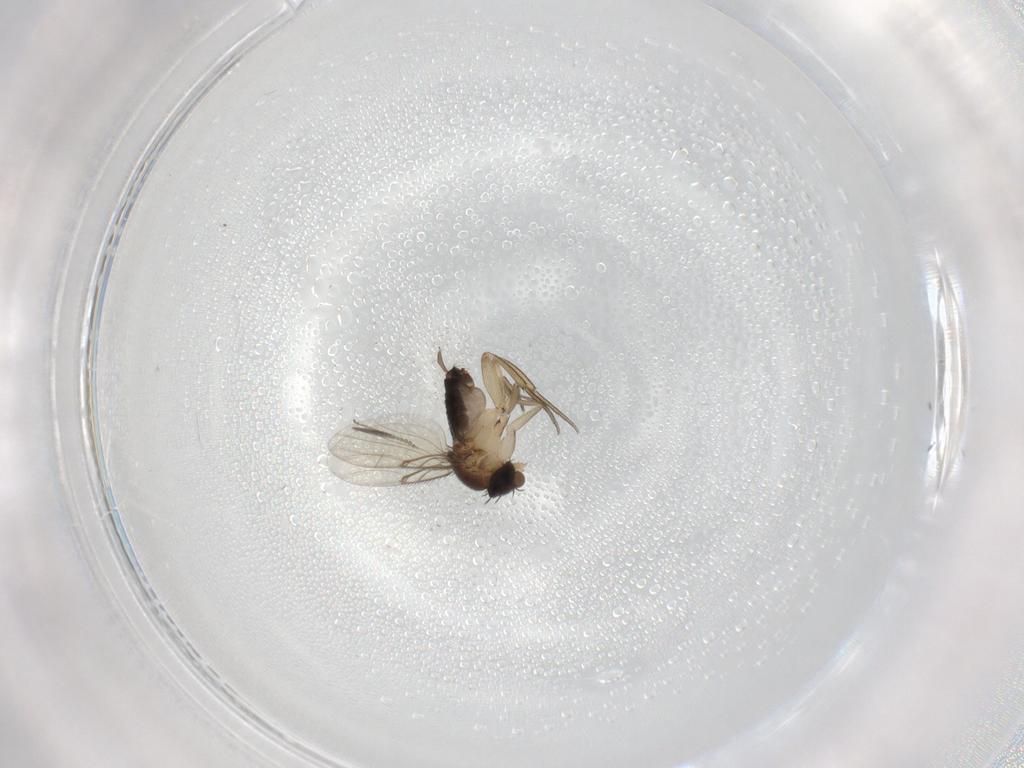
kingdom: Animalia
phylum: Arthropoda
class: Insecta
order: Diptera
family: Ceratopogonidae
